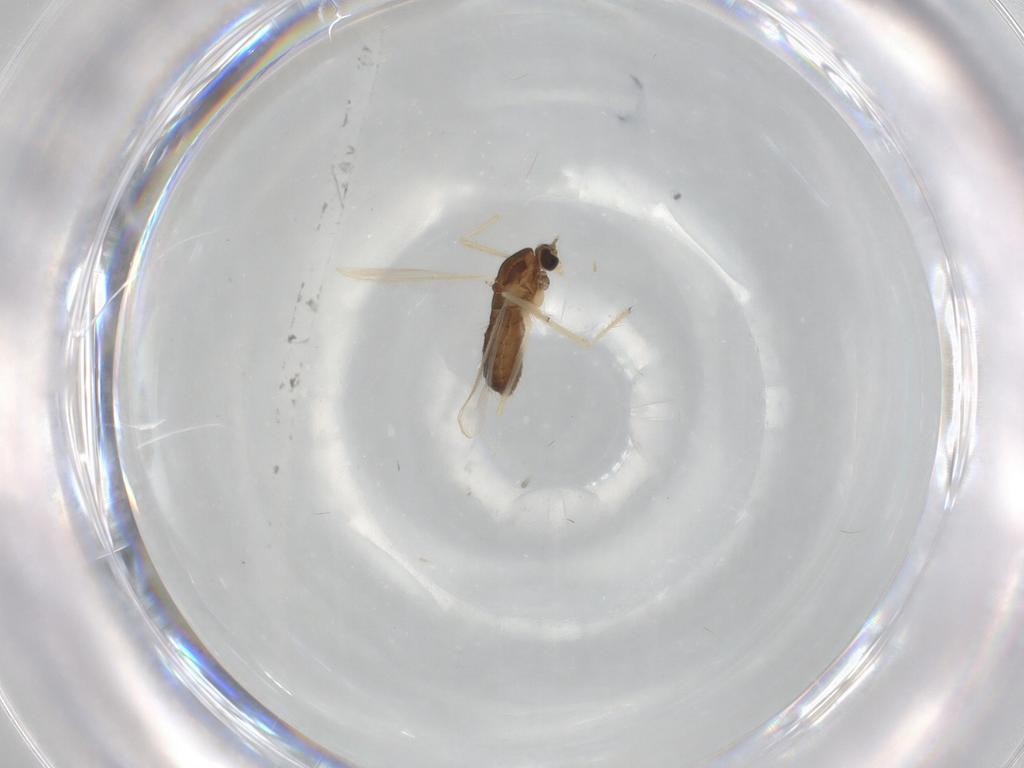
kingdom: Animalia
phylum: Arthropoda
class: Insecta
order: Diptera
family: Chironomidae
